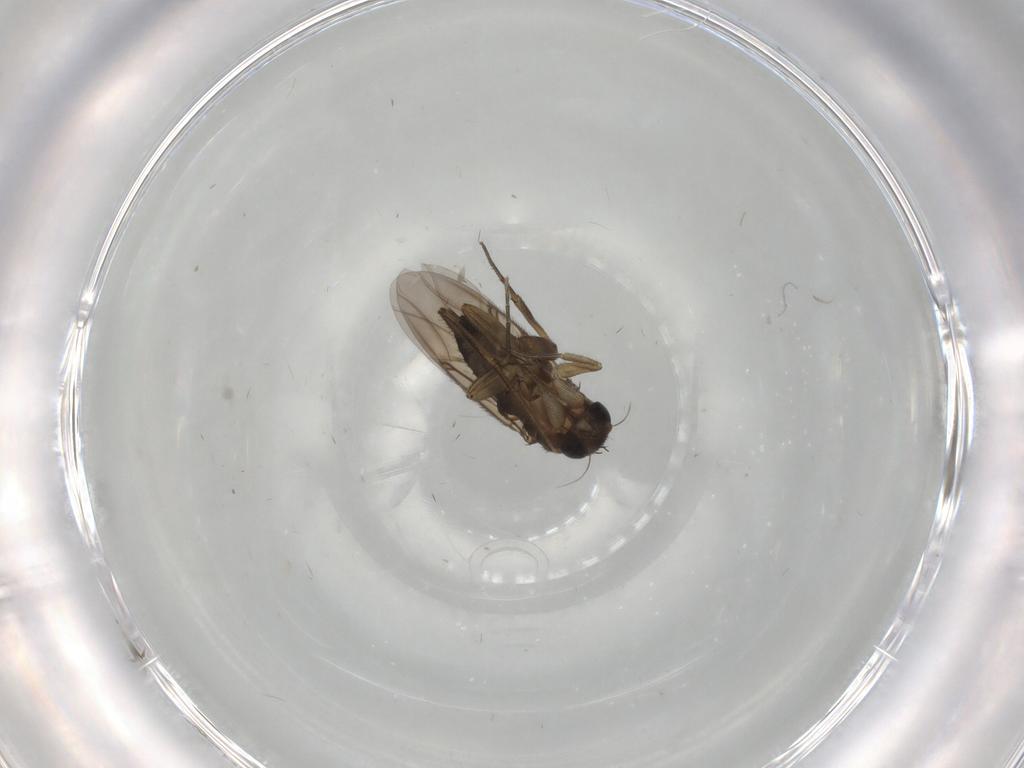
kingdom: Animalia
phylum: Arthropoda
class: Insecta
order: Diptera
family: Phoridae
